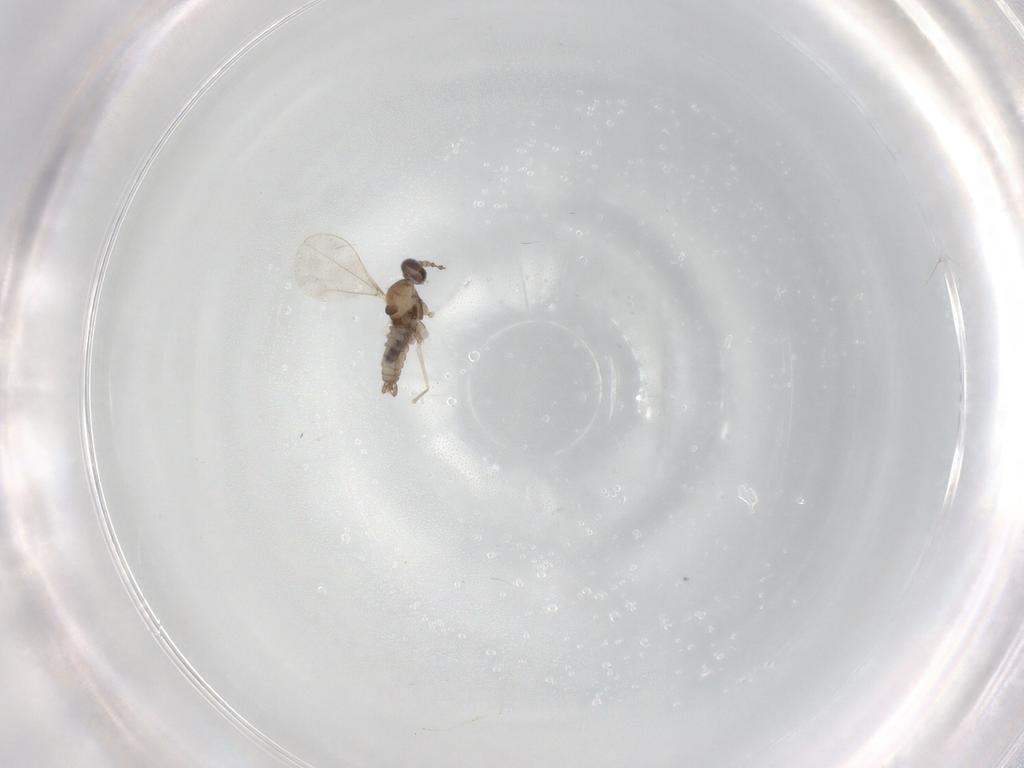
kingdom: Animalia
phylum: Arthropoda
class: Insecta
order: Diptera
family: Cecidomyiidae
